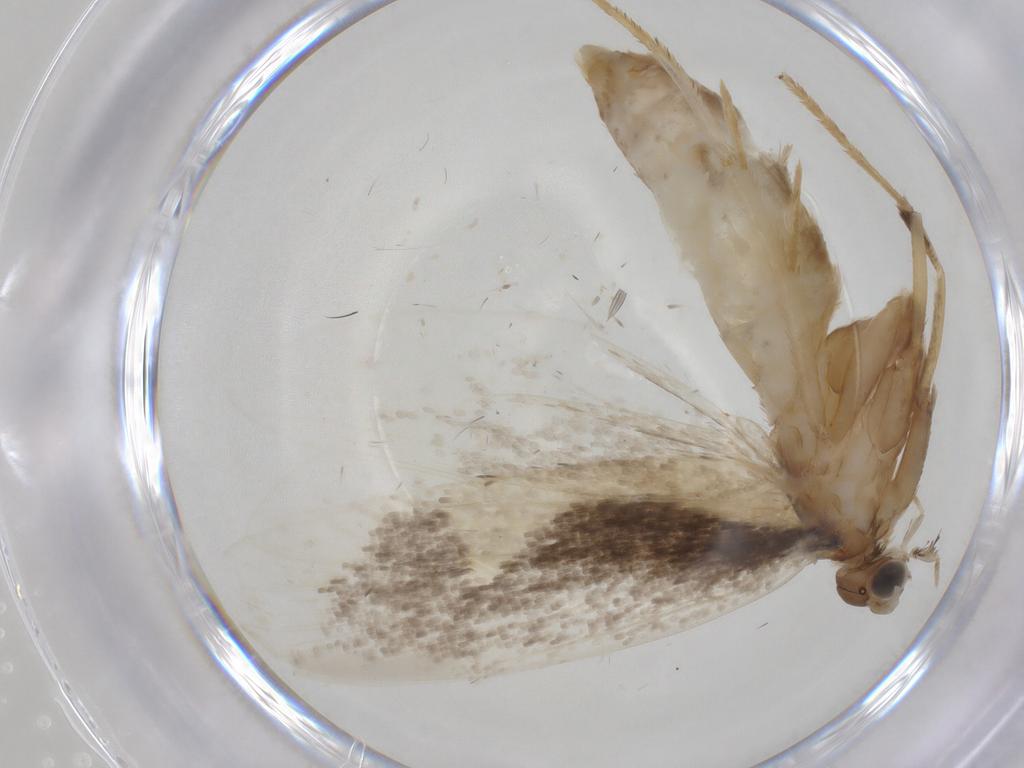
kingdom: Animalia
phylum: Arthropoda
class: Insecta
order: Lepidoptera
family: Plutellidae
